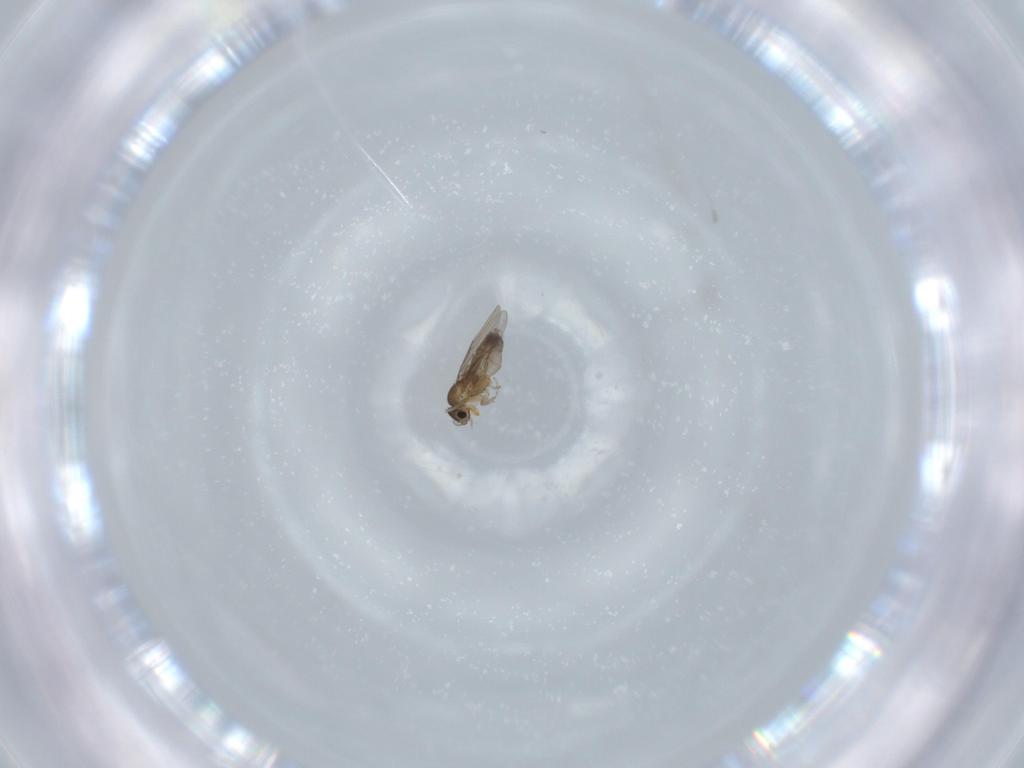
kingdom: Animalia
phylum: Arthropoda
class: Insecta
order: Diptera
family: Phoridae
